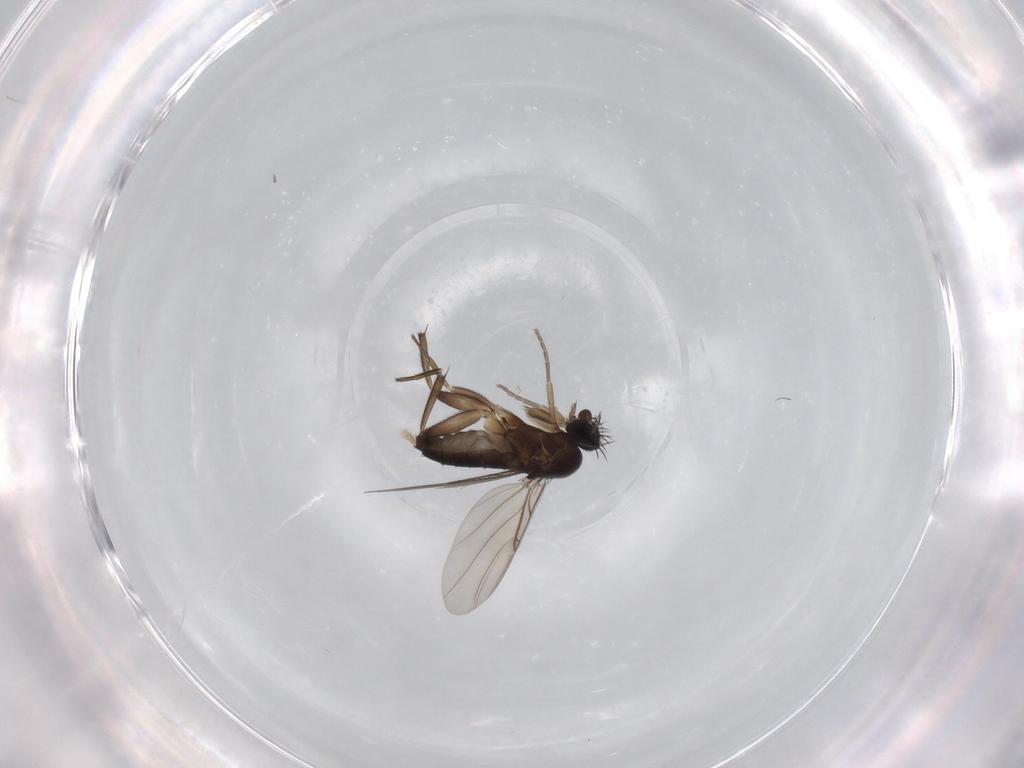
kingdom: Animalia
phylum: Arthropoda
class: Insecta
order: Diptera
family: Phoridae
